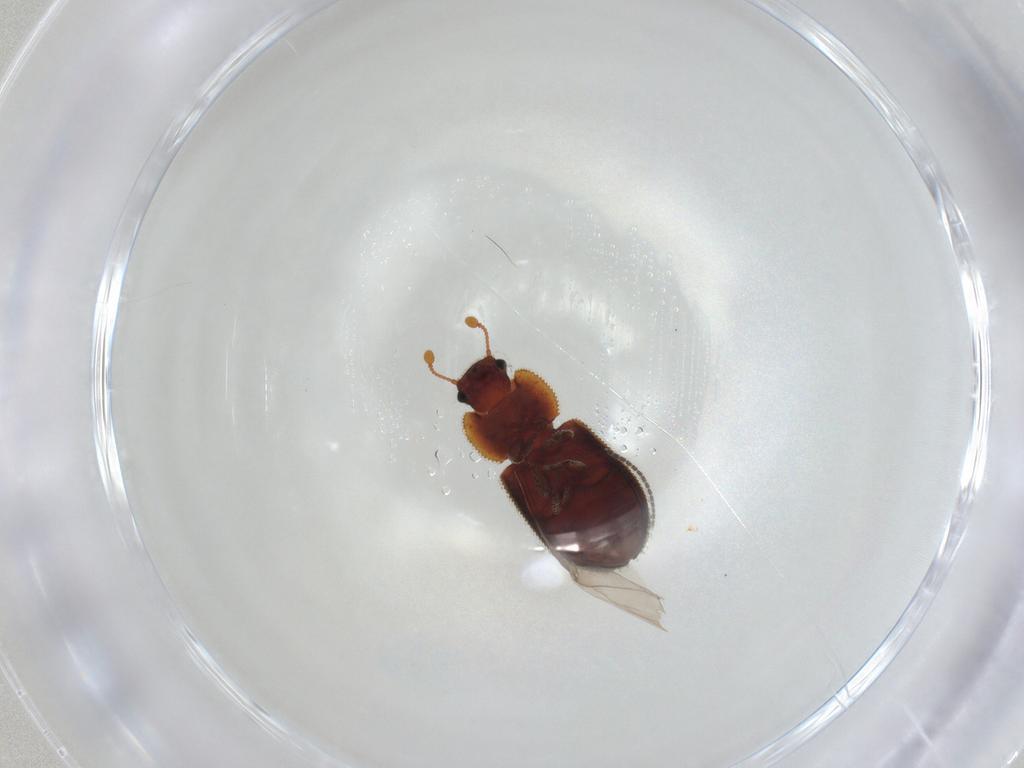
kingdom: Animalia
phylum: Arthropoda
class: Insecta
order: Coleoptera
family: Zopheridae
